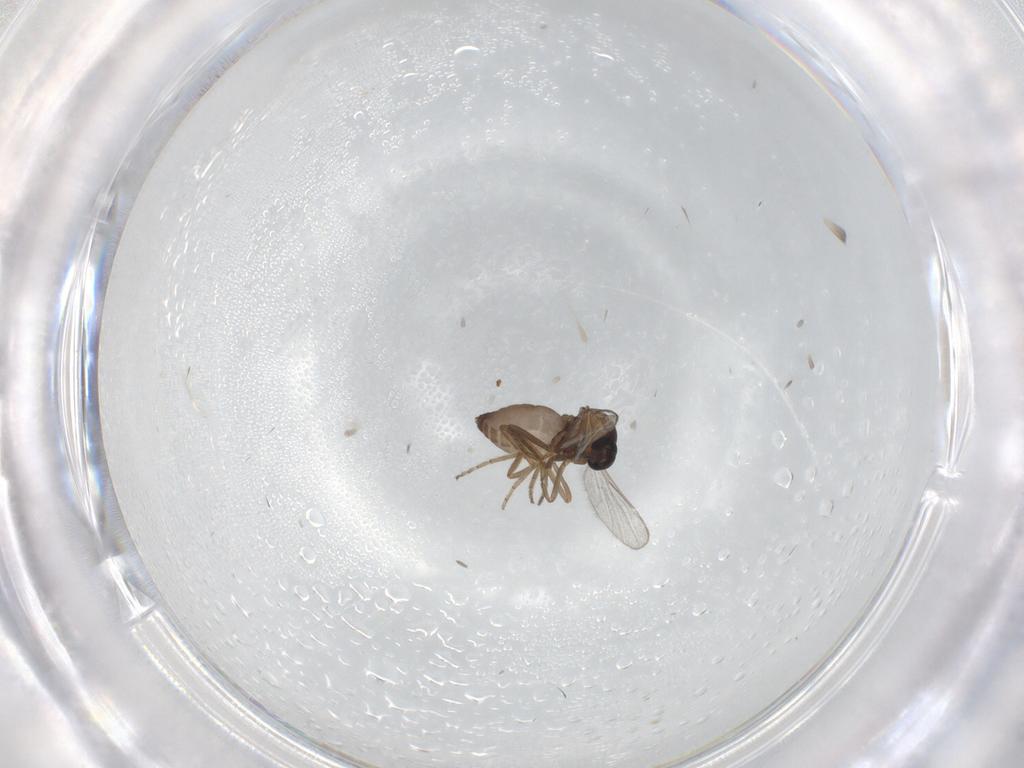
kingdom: Animalia
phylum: Arthropoda
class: Insecta
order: Diptera
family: Ceratopogonidae
